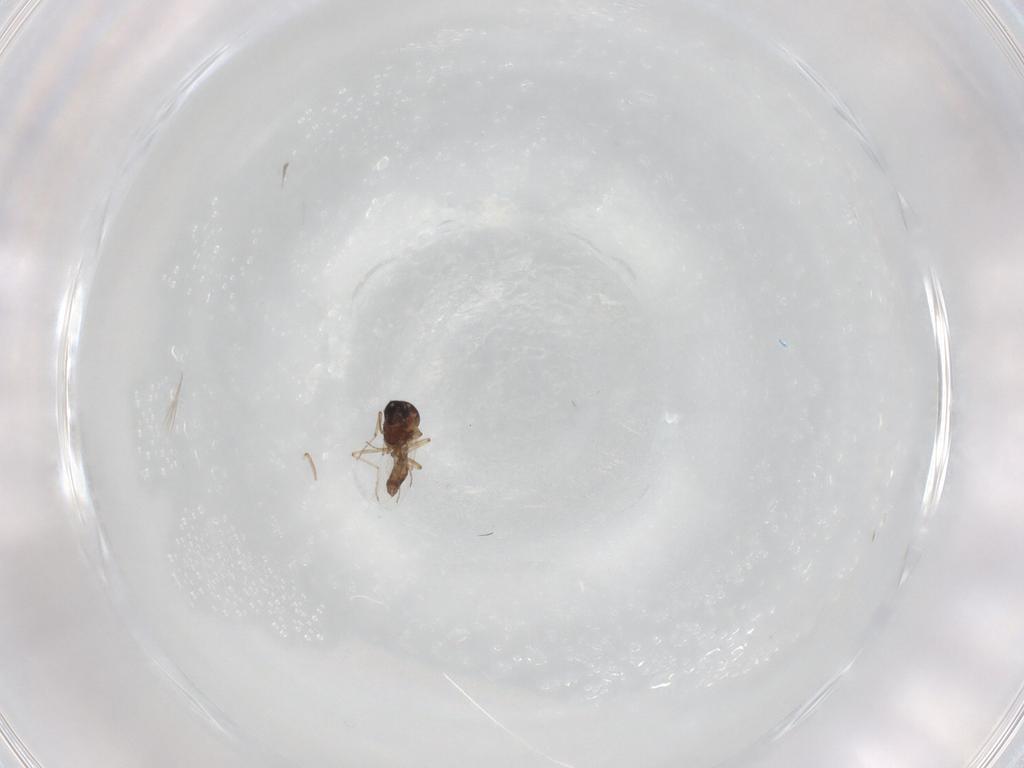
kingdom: Animalia
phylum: Arthropoda
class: Insecta
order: Diptera
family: Ceratopogonidae
